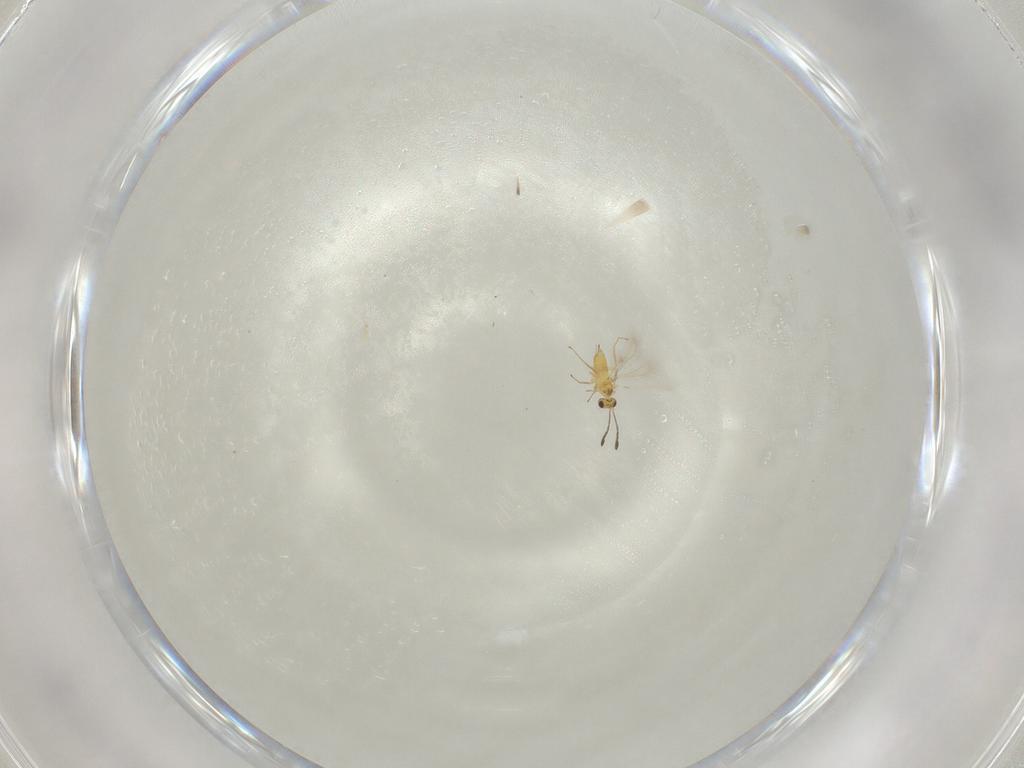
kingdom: Animalia
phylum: Arthropoda
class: Insecta
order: Hymenoptera
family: Mymaridae
